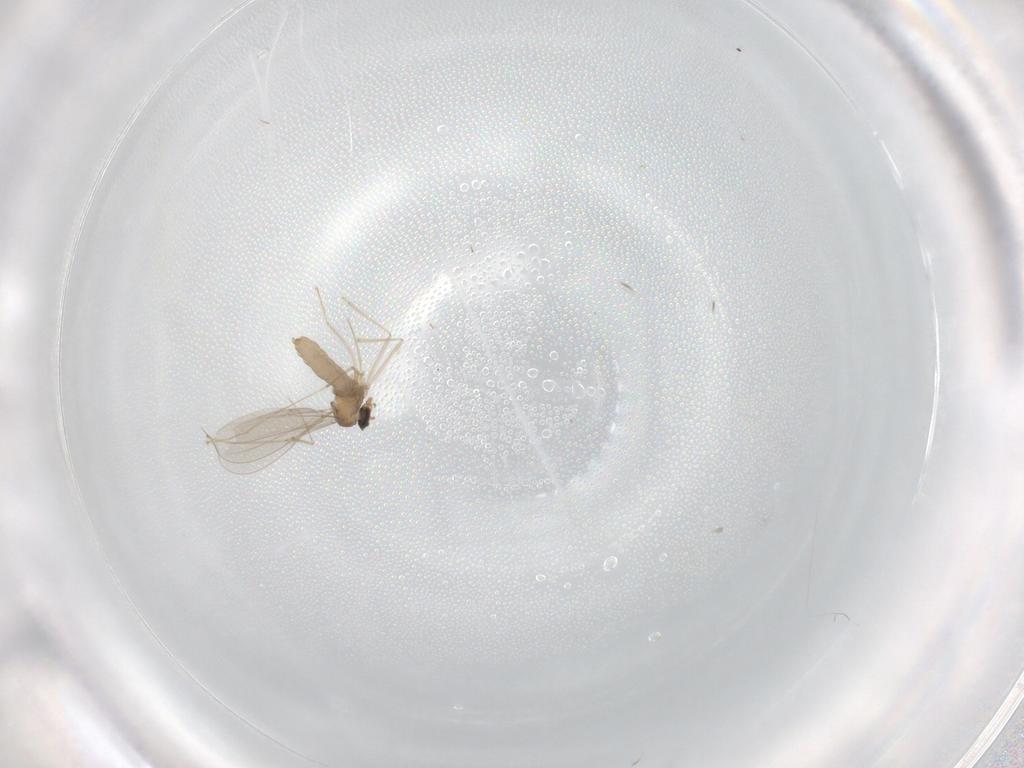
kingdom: Animalia
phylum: Arthropoda
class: Insecta
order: Diptera
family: Cecidomyiidae
